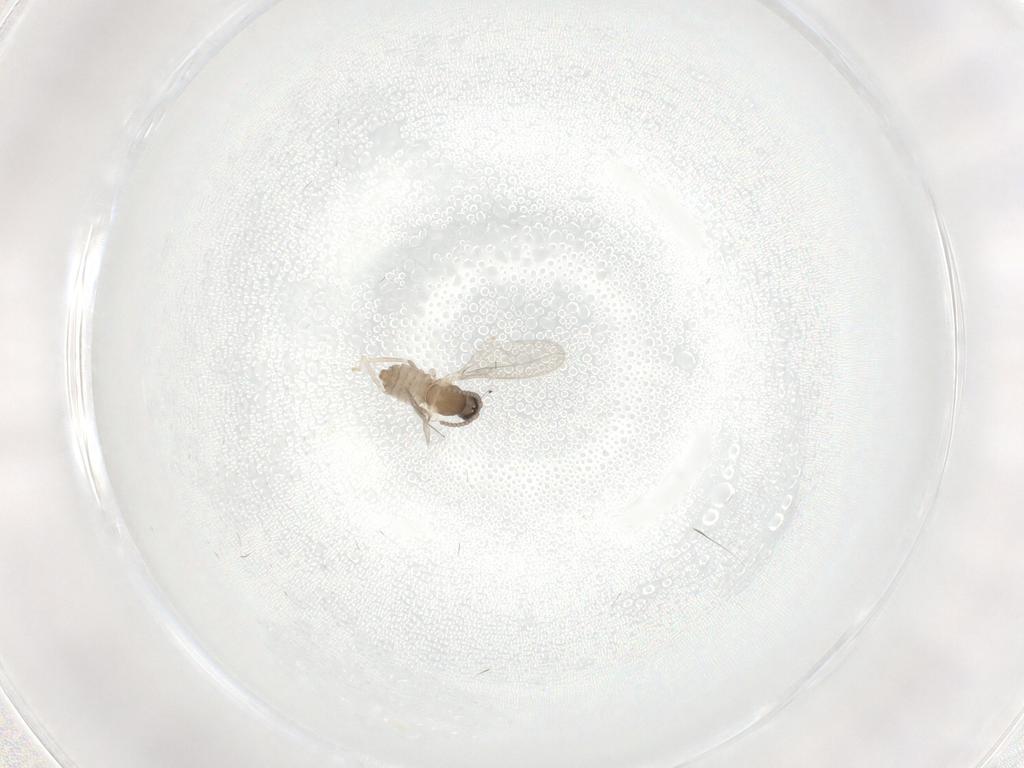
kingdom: Animalia
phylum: Arthropoda
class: Insecta
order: Diptera
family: Cecidomyiidae
